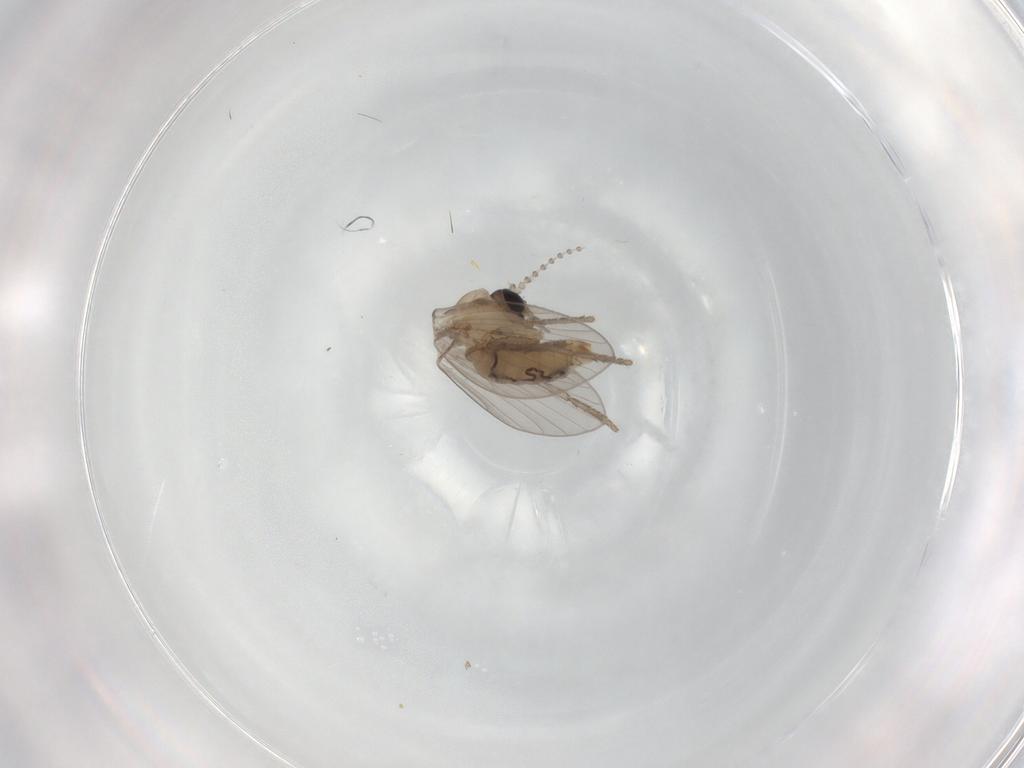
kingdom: Animalia
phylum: Arthropoda
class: Insecta
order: Diptera
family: Psychodidae
